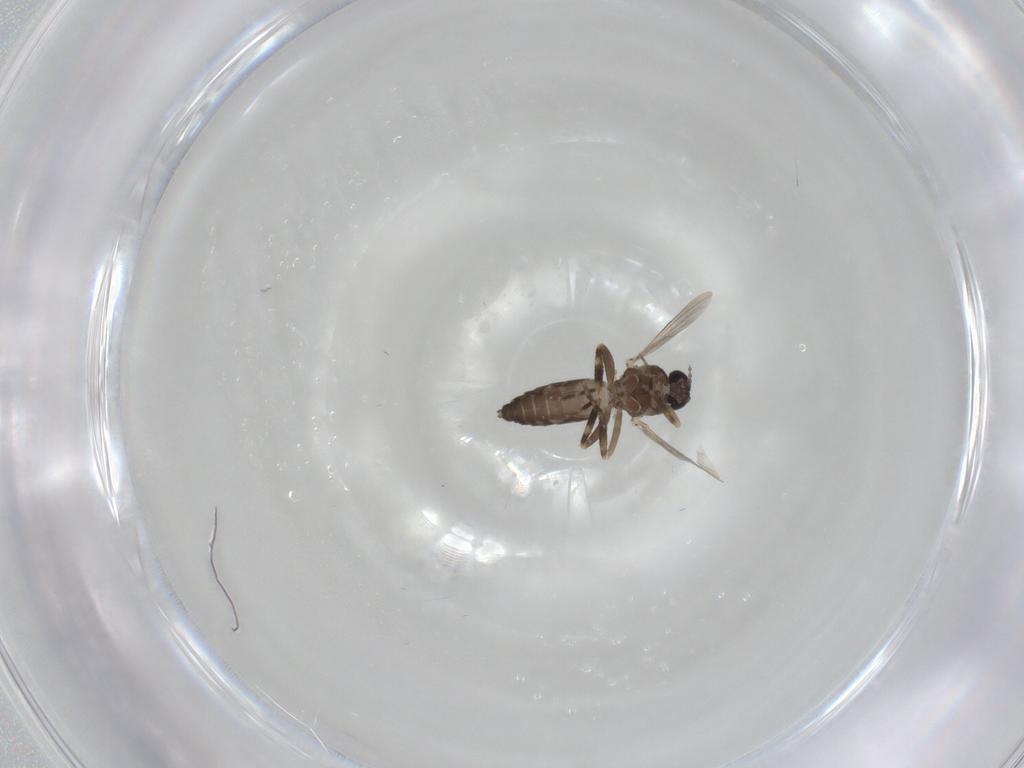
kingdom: Animalia
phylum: Arthropoda
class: Insecta
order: Diptera
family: Ceratopogonidae
